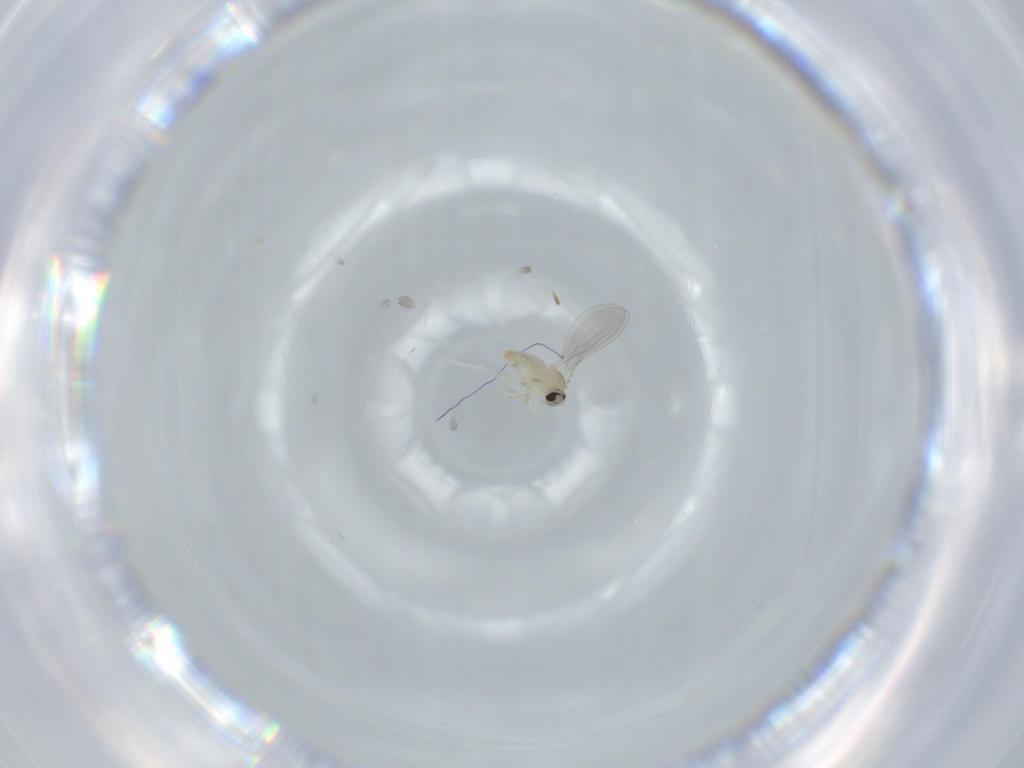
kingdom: Animalia
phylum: Arthropoda
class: Insecta
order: Diptera
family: Cecidomyiidae
